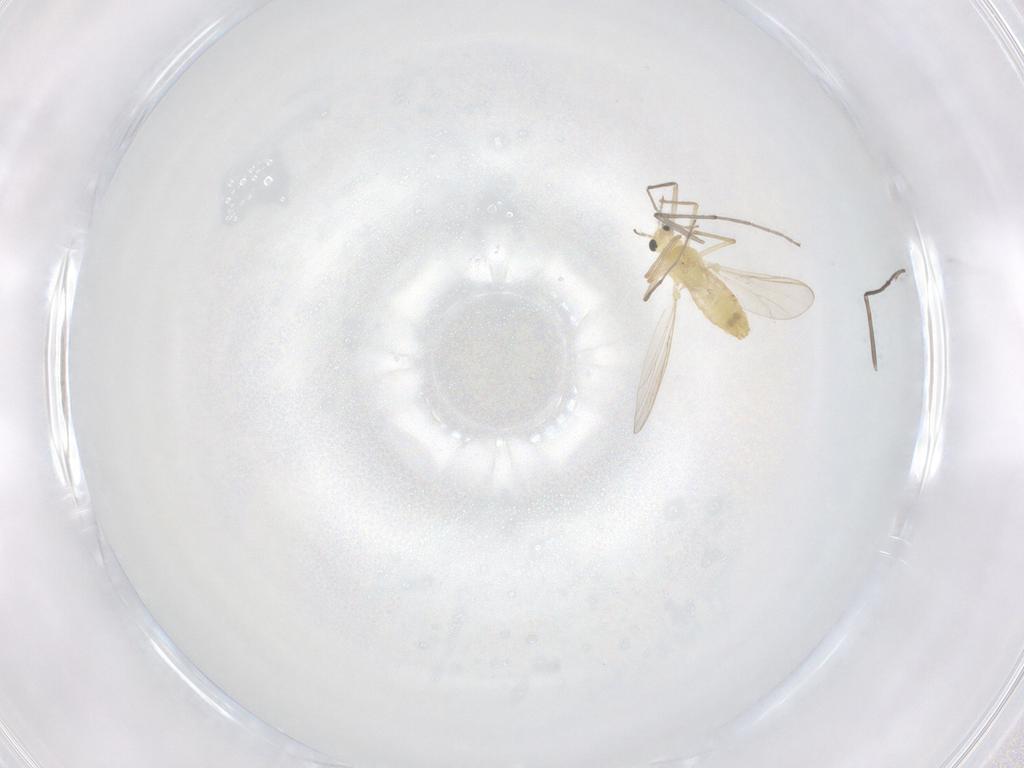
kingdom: Animalia
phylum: Arthropoda
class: Insecta
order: Diptera
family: Chironomidae
